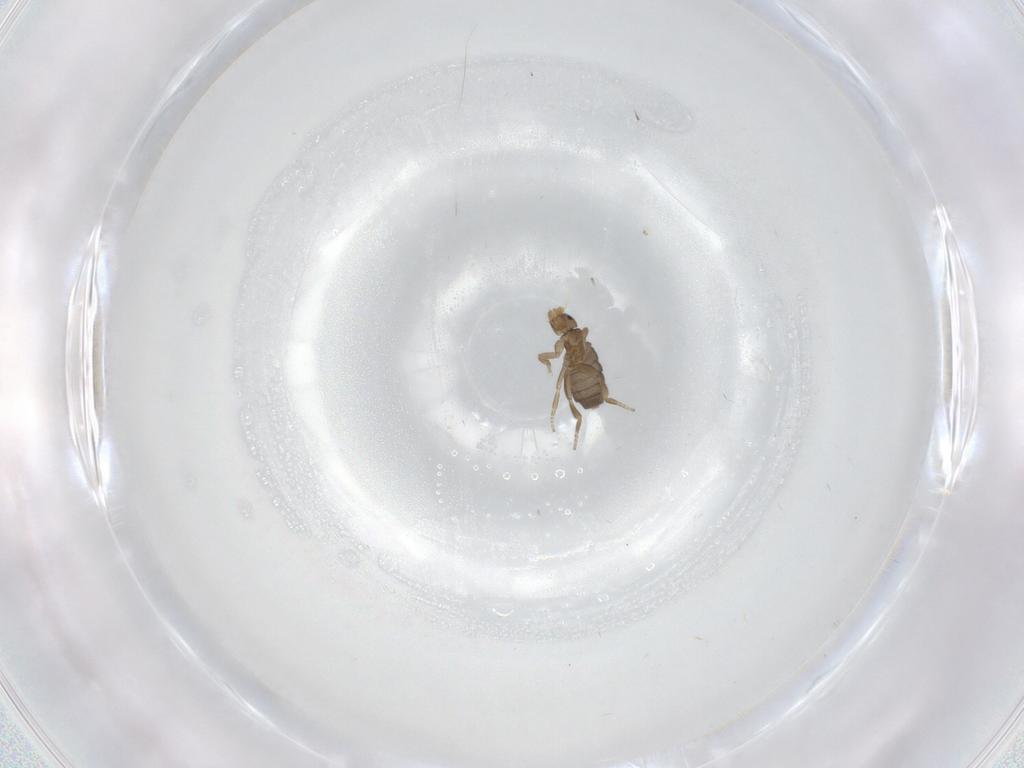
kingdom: Animalia
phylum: Arthropoda
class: Insecta
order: Diptera
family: Phoridae
